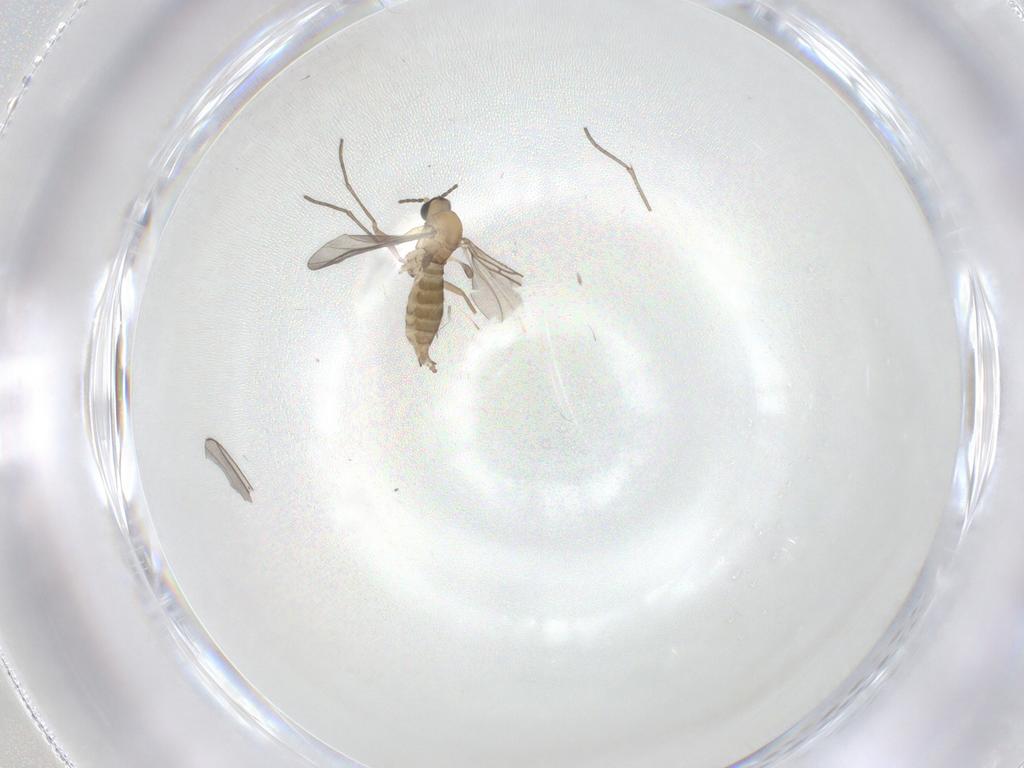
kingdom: Animalia
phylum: Arthropoda
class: Insecta
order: Diptera
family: Sciaridae
